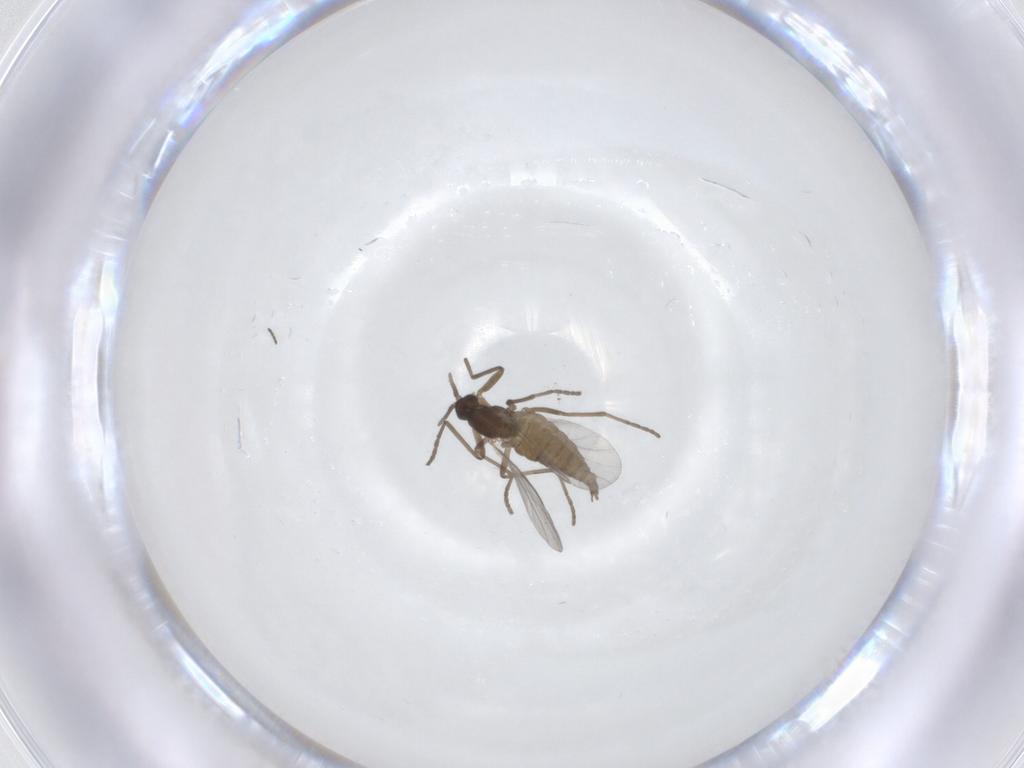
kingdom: Animalia
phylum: Arthropoda
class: Insecta
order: Diptera
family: Cecidomyiidae
